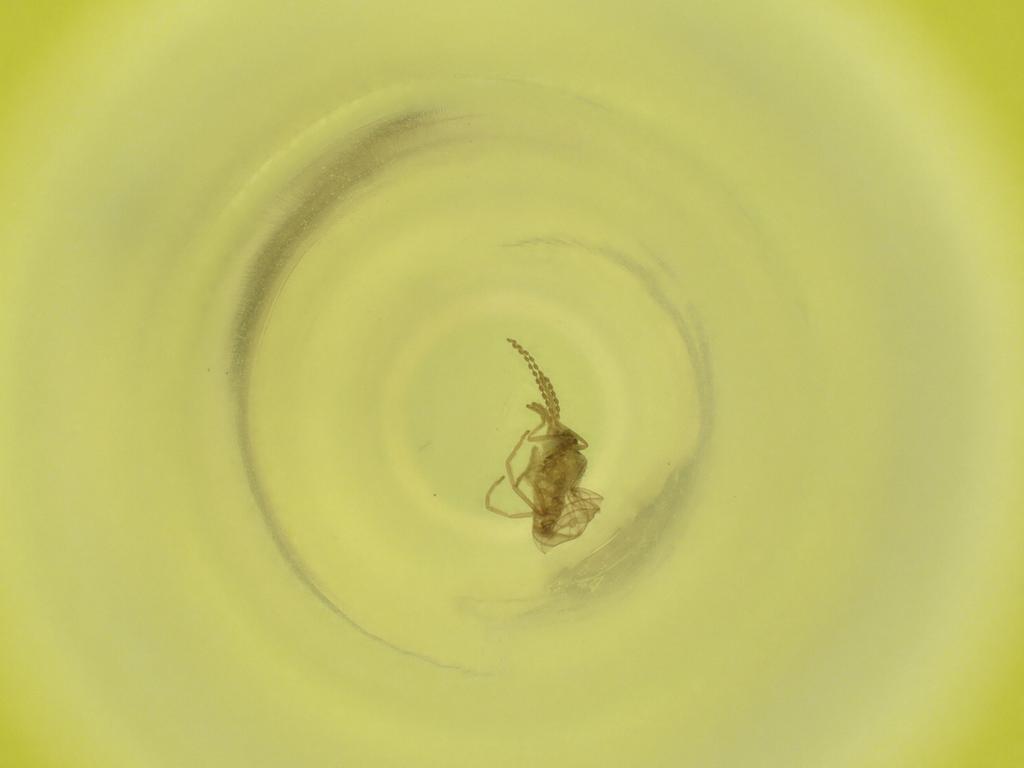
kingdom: Animalia
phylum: Arthropoda
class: Insecta
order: Diptera
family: Cecidomyiidae
